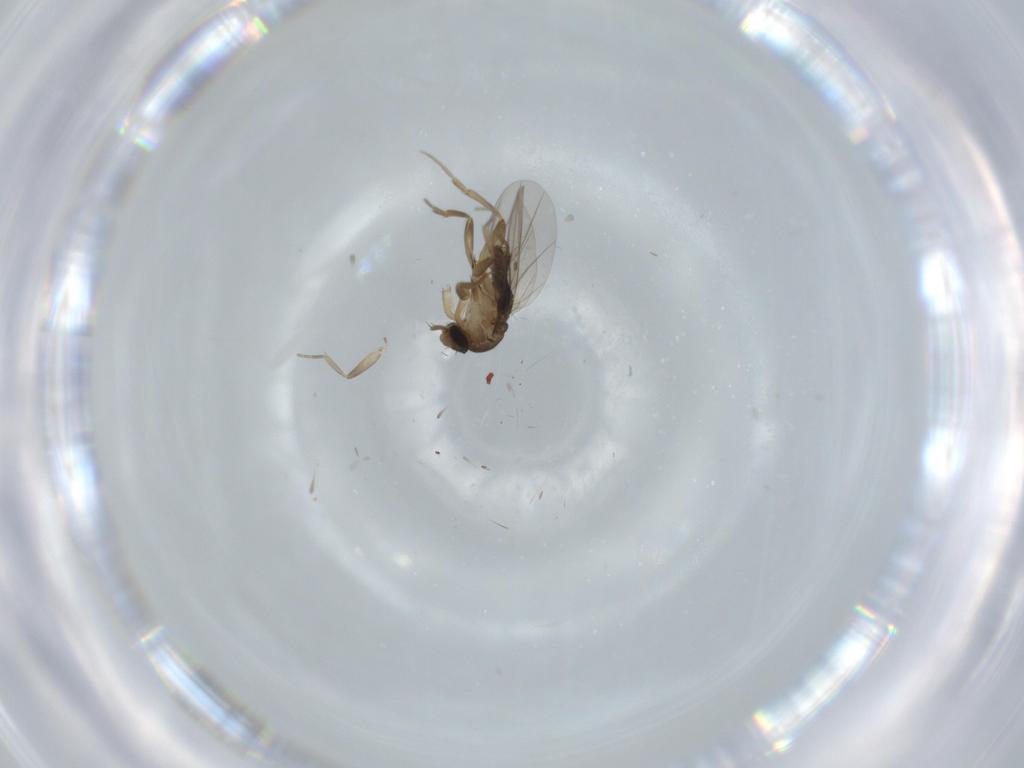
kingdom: Animalia
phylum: Arthropoda
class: Insecta
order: Diptera
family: Phoridae
